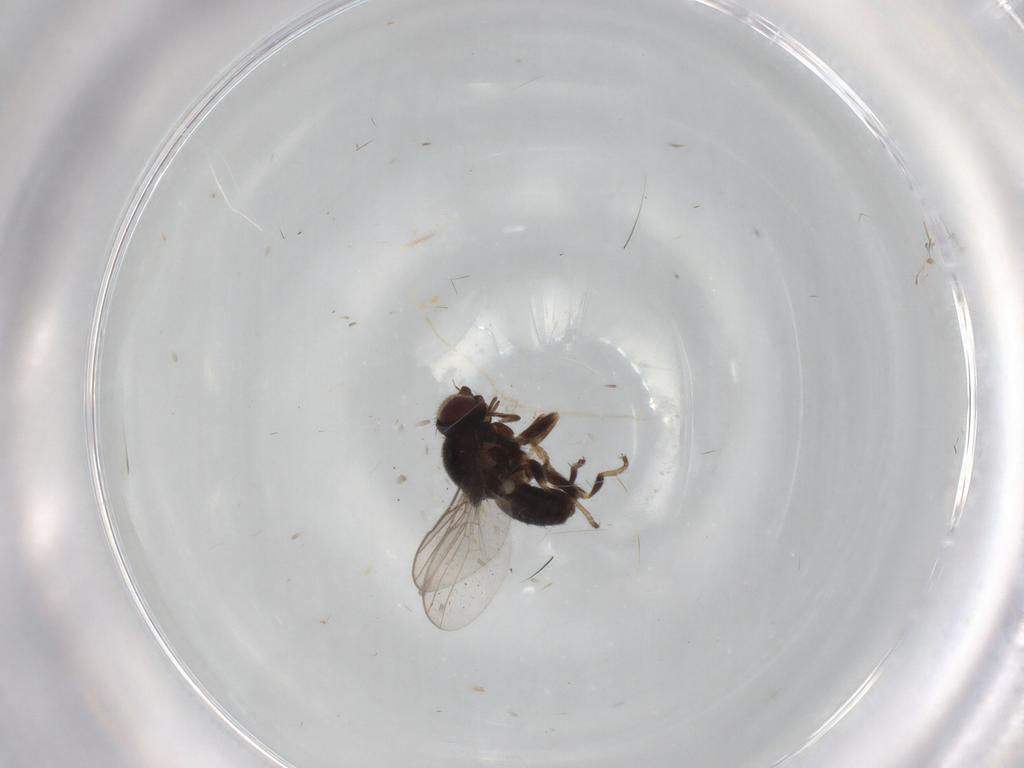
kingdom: Animalia
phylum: Arthropoda
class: Insecta
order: Diptera
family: Chloropidae
